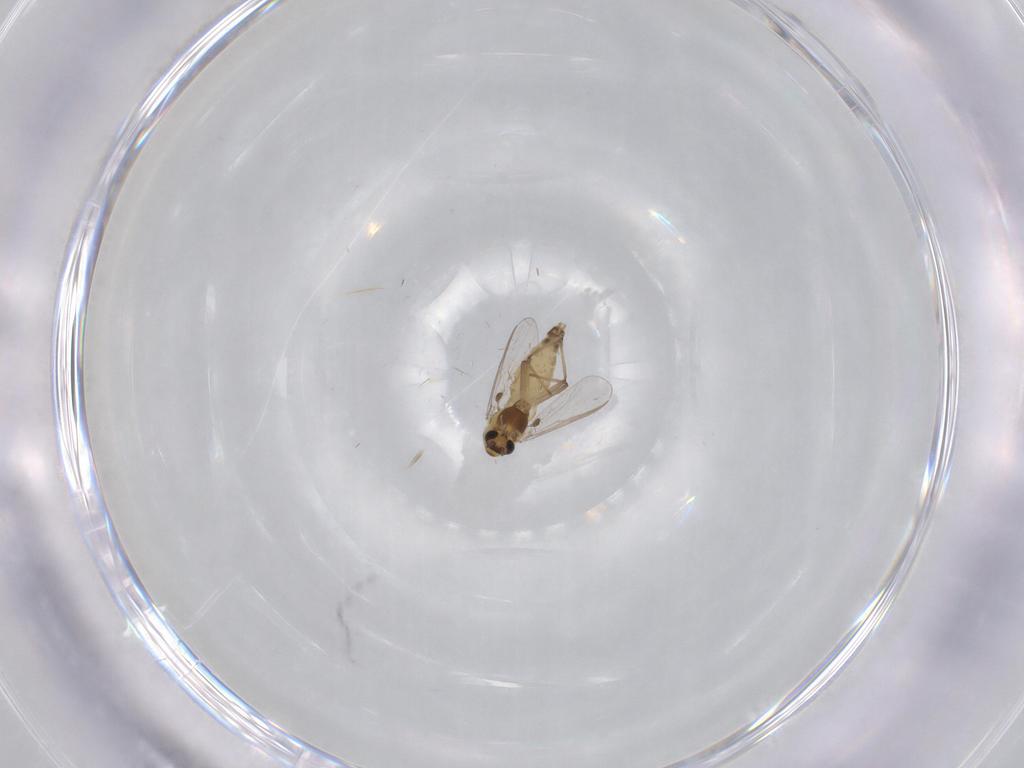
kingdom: Animalia
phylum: Arthropoda
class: Insecta
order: Diptera
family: Chironomidae
